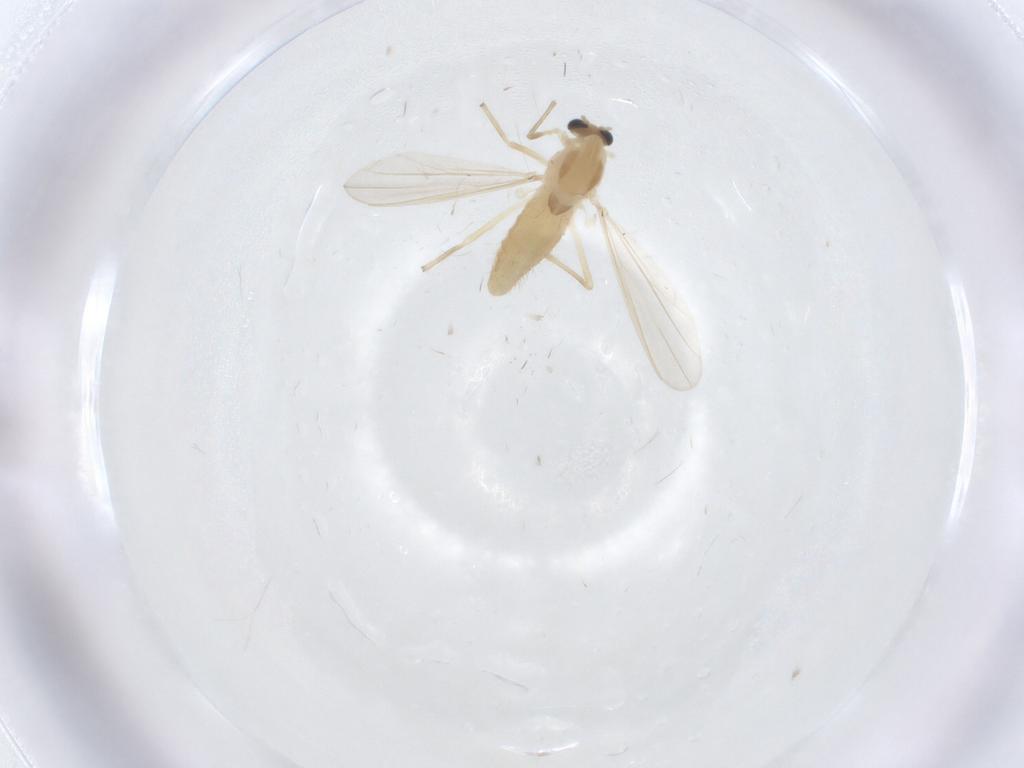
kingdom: Animalia
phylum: Arthropoda
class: Insecta
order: Diptera
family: Chironomidae
